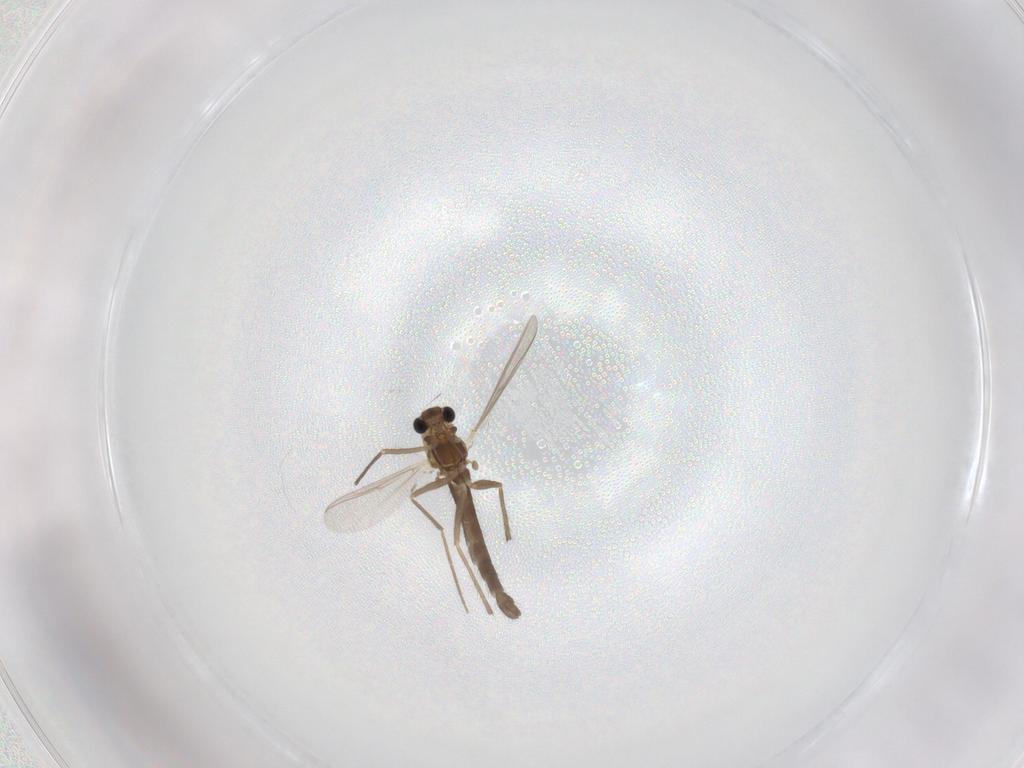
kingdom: Animalia
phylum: Arthropoda
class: Insecta
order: Diptera
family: Chironomidae
